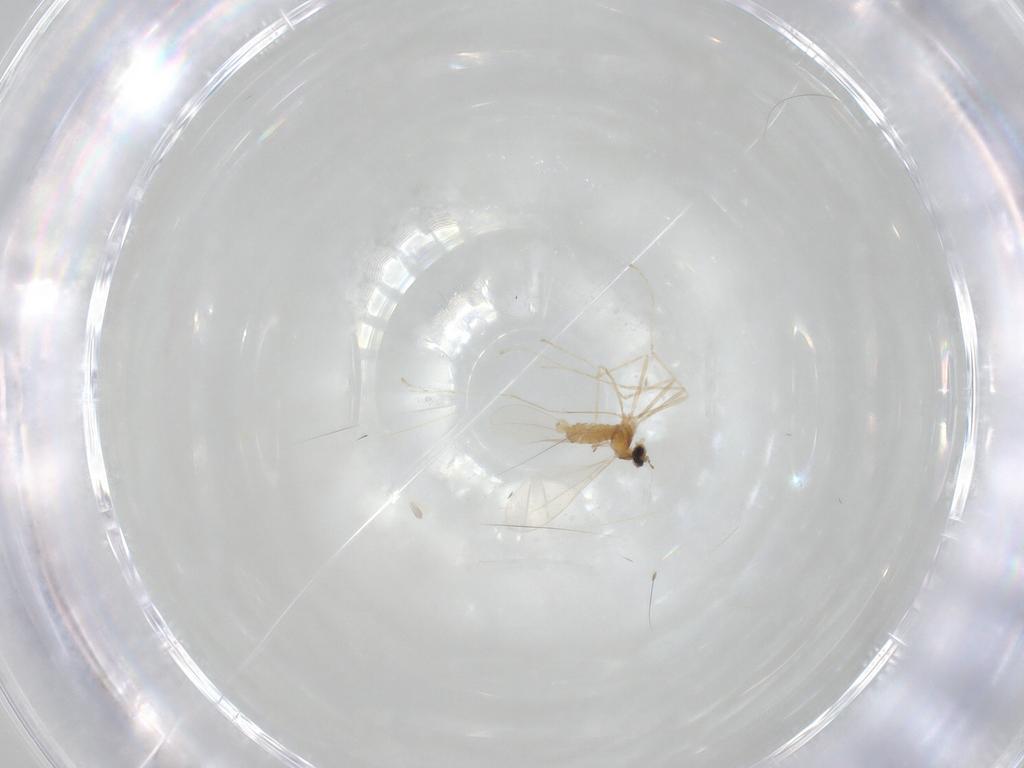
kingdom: Animalia
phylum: Arthropoda
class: Insecta
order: Diptera
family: Cecidomyiidae
